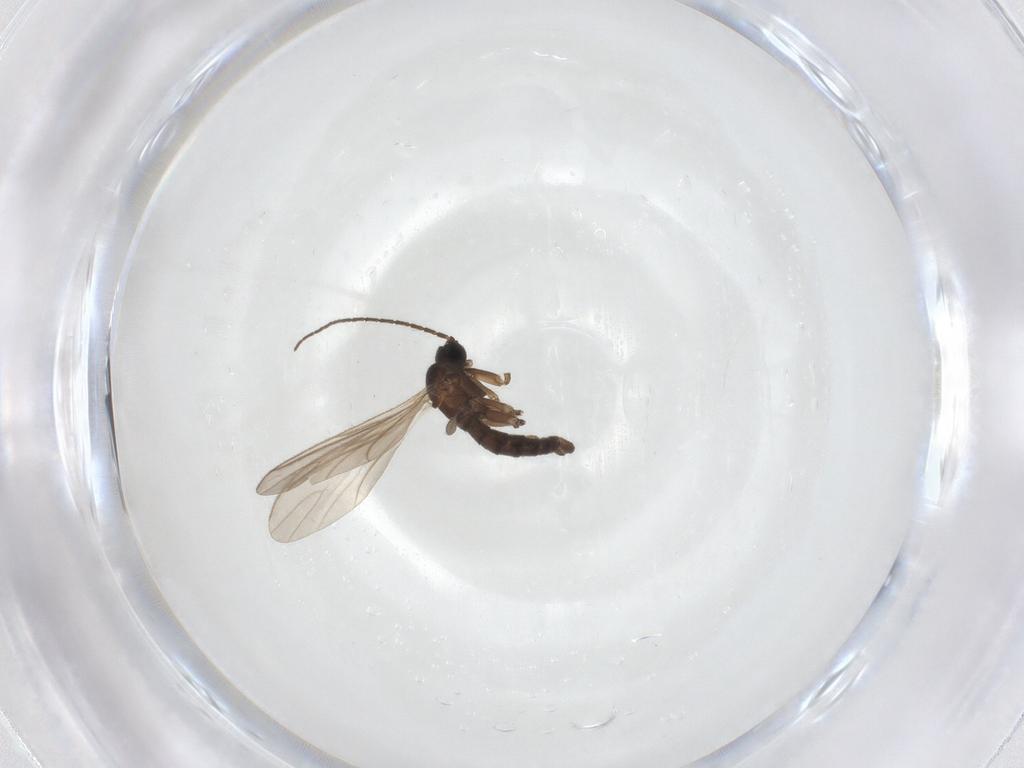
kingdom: Animalia
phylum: Arthropoda
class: Insecta
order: Diptera
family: Sciaridae
